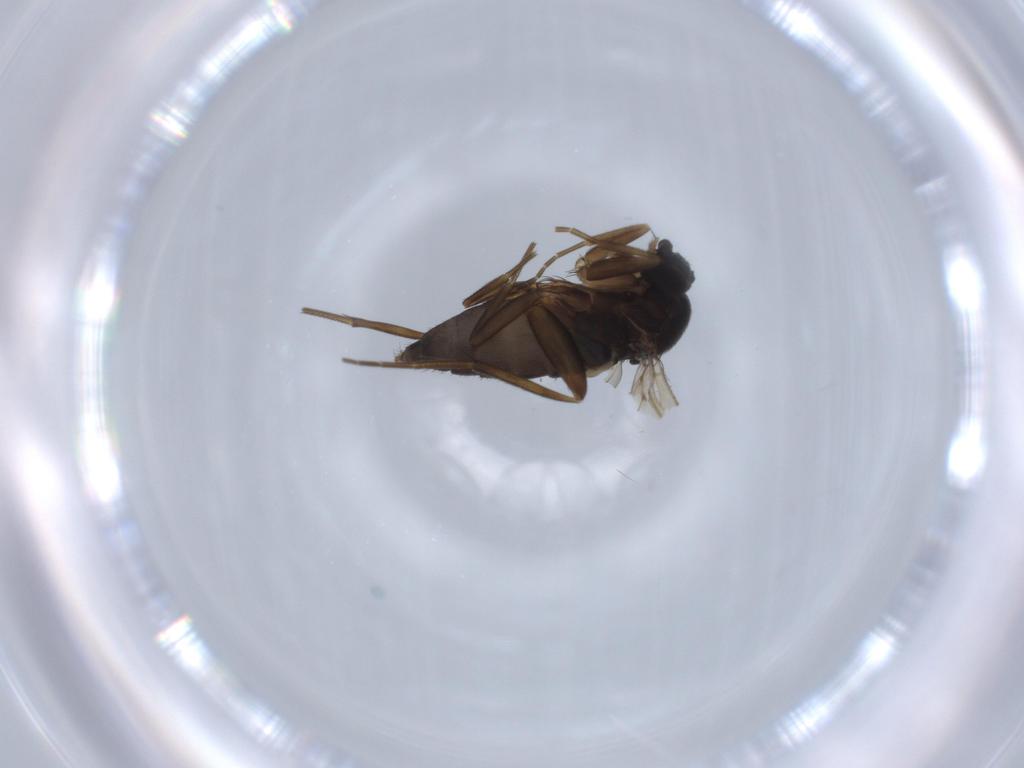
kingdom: Animalia
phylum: Arthropoda
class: Insecta
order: Diptera
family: Phoridae
